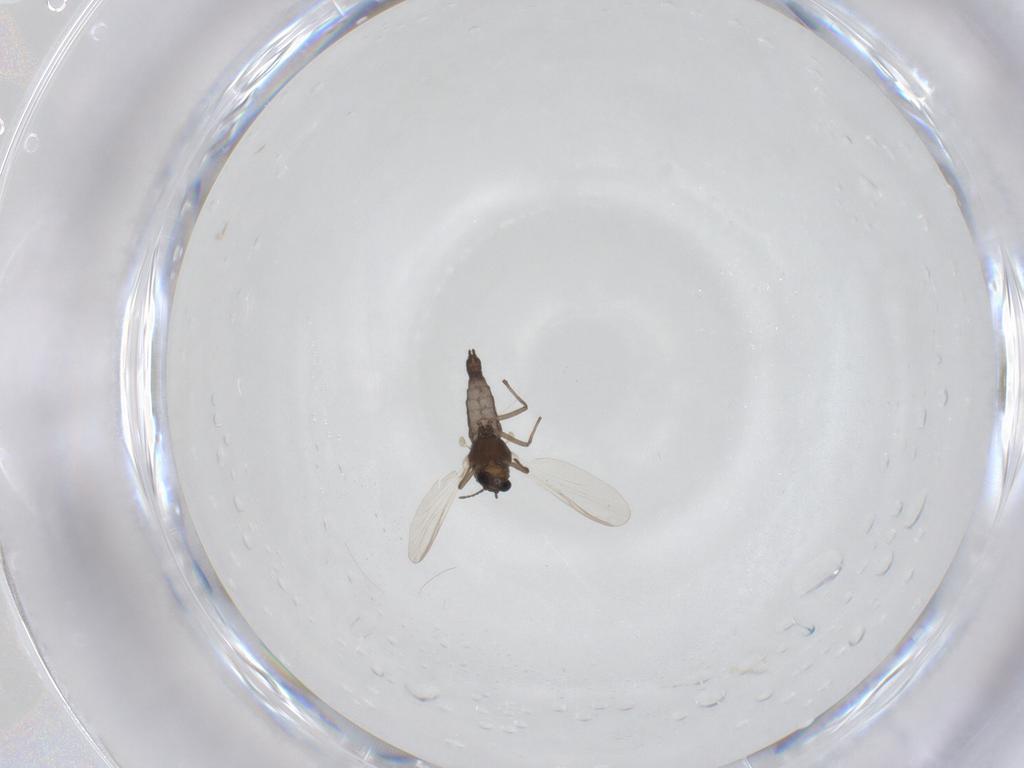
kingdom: Animalia
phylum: Arthropoda
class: Insecta
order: Diptera
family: Chironomidae
